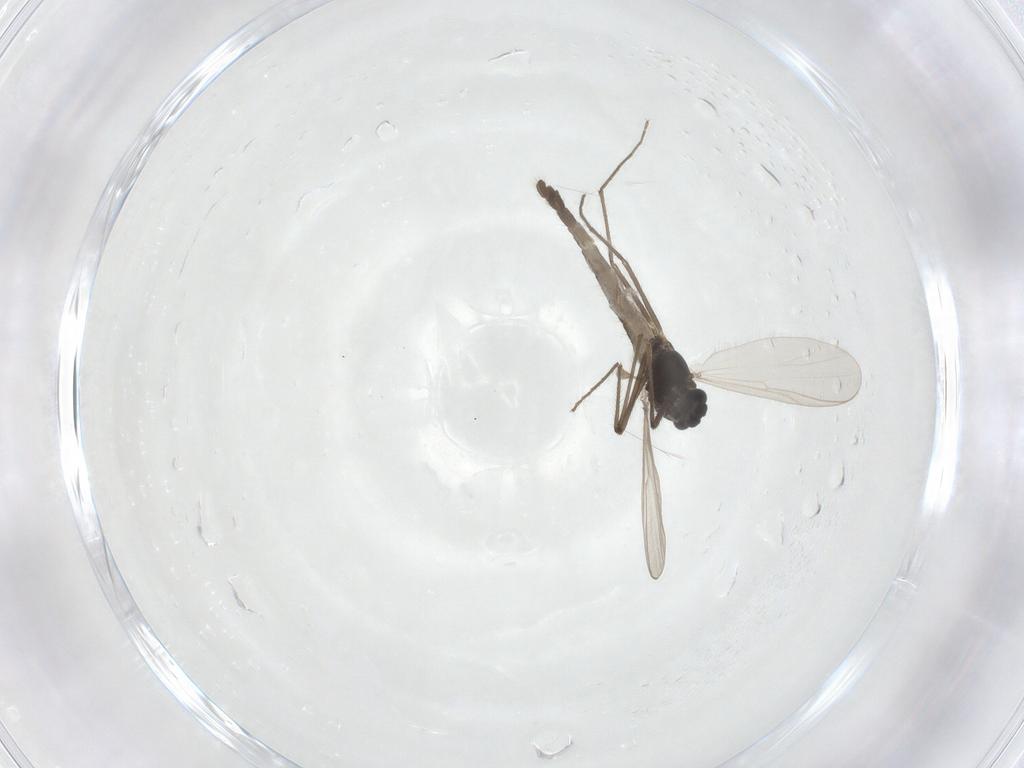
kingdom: Animalia
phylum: Arthropoda
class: Insecta
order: Diptera
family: Chironomidae
